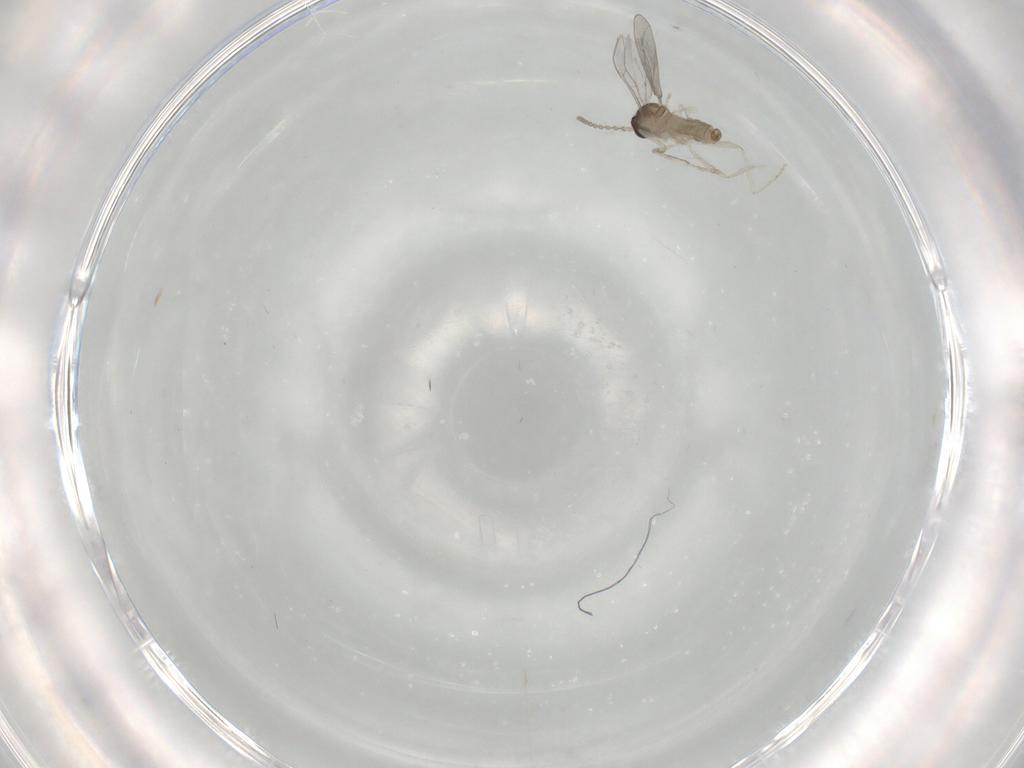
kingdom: Animalia
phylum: Arthropoda
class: Insecta
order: Diptera
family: Cecidomyiidae
